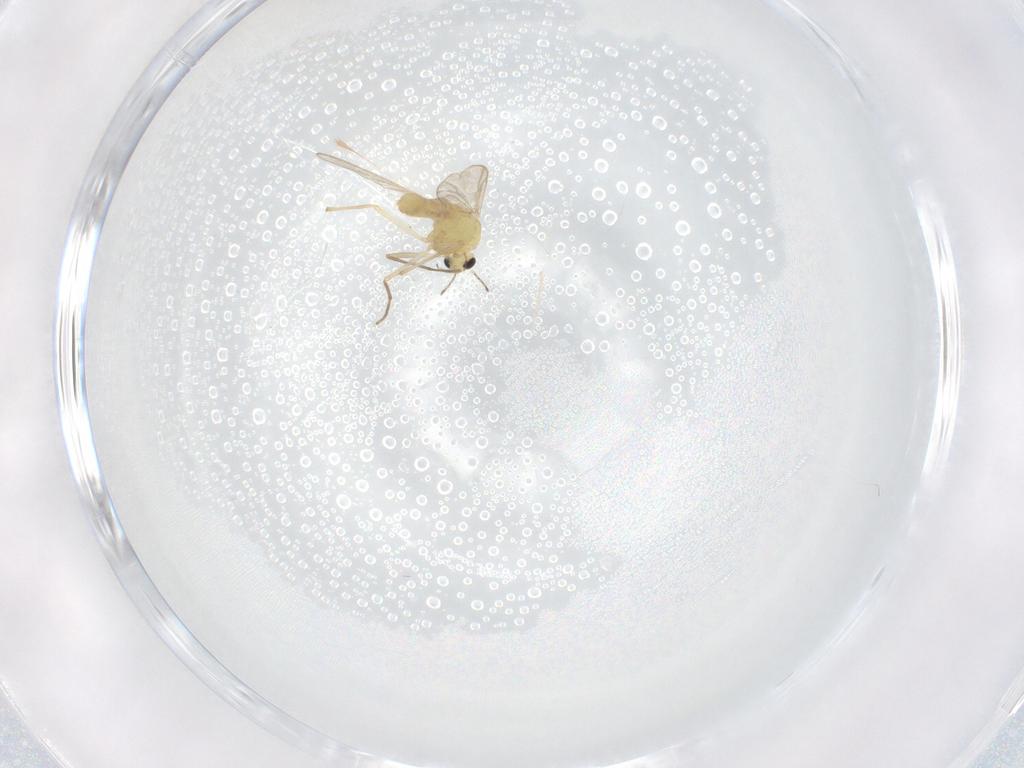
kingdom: Animalia
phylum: Arthropoda
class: Insecta
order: Diptera
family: Chironomidae
